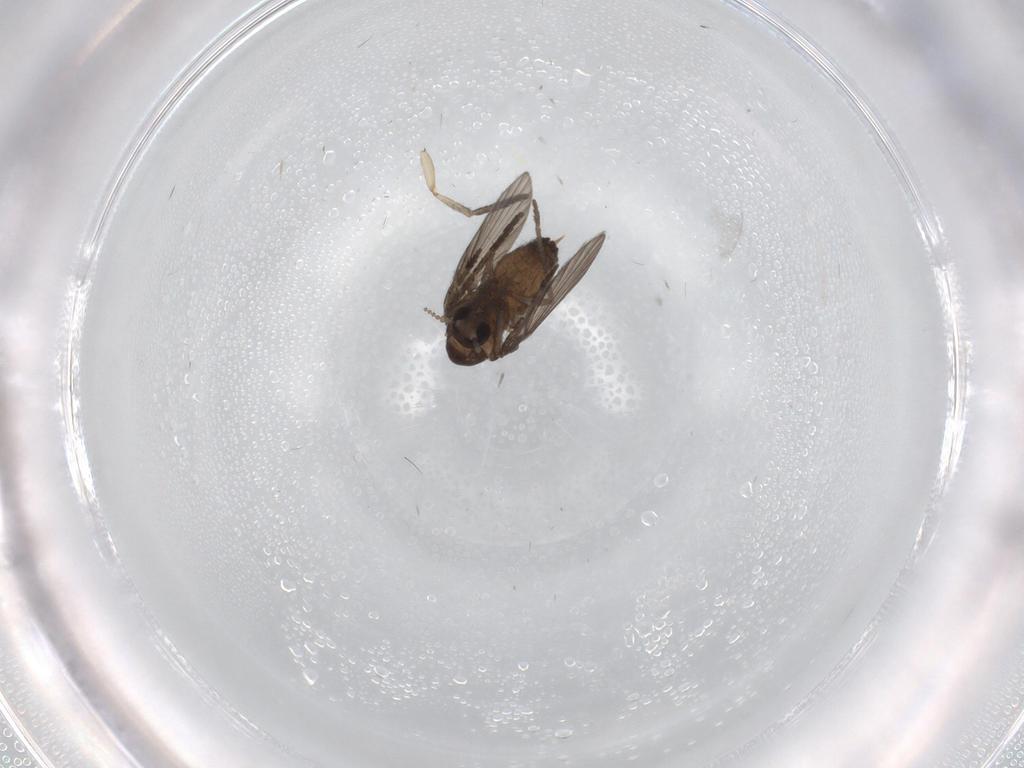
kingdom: Animalia
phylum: Arthropoda
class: Insecta
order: Diptera
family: Psychodidae
